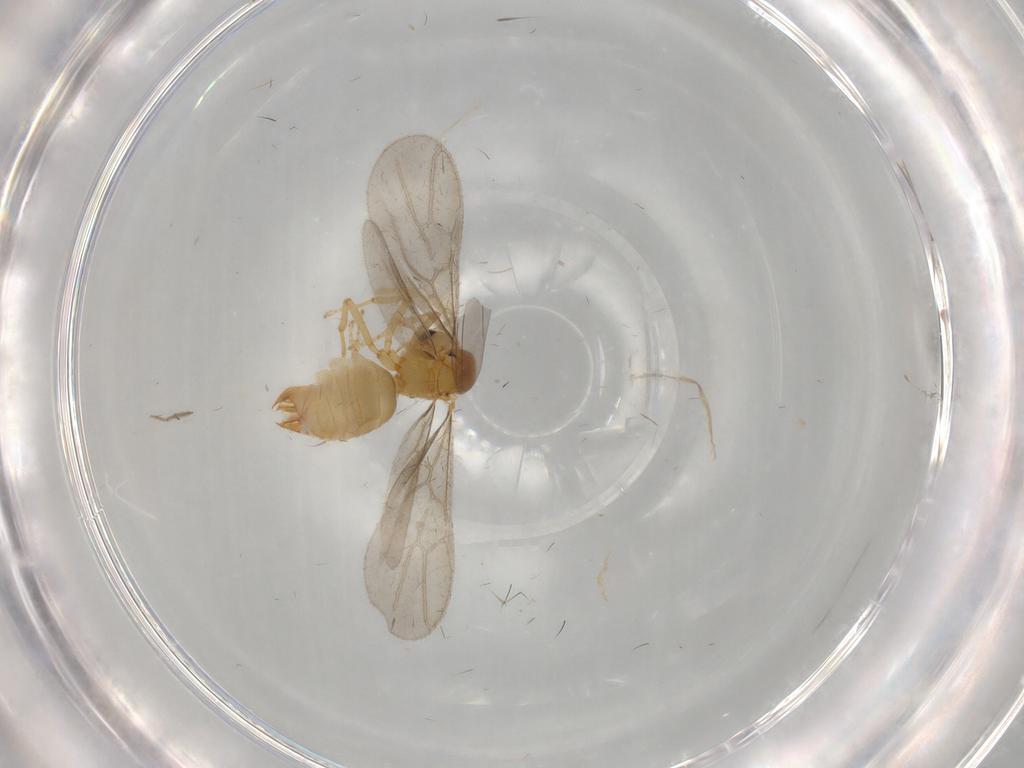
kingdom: Animalia
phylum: Arthropoda
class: Insecta
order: Hymenoptera
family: Formicidae
